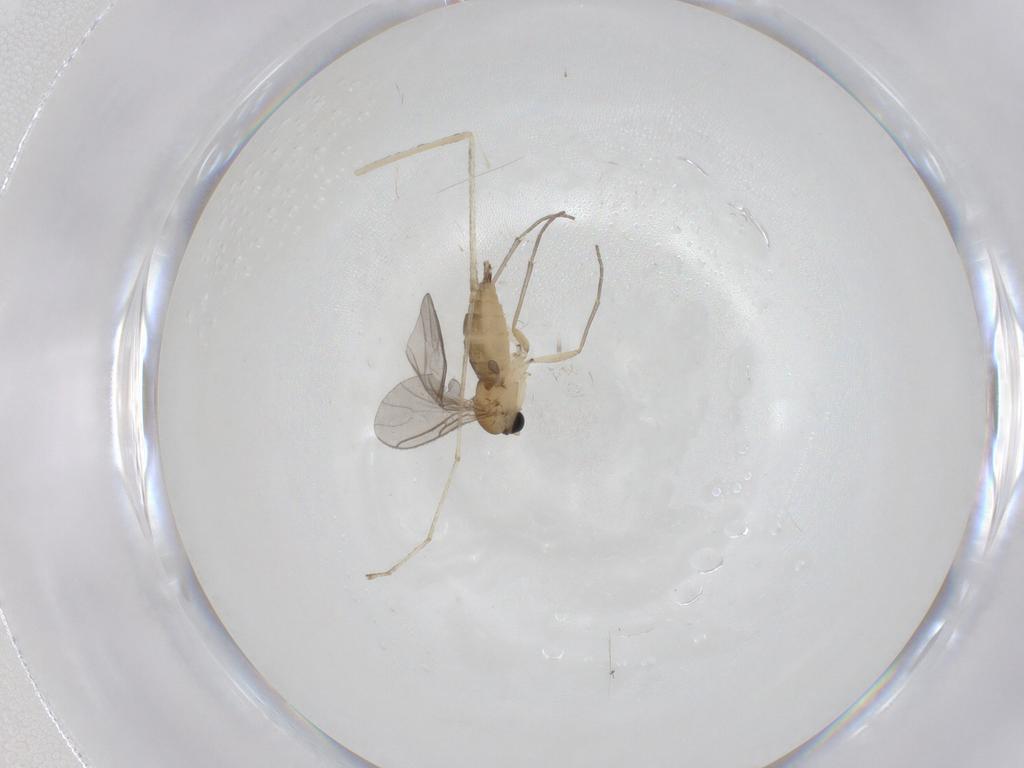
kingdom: Animalia
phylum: Arthropoda
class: Insecta
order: Diptera
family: Sciaridae
